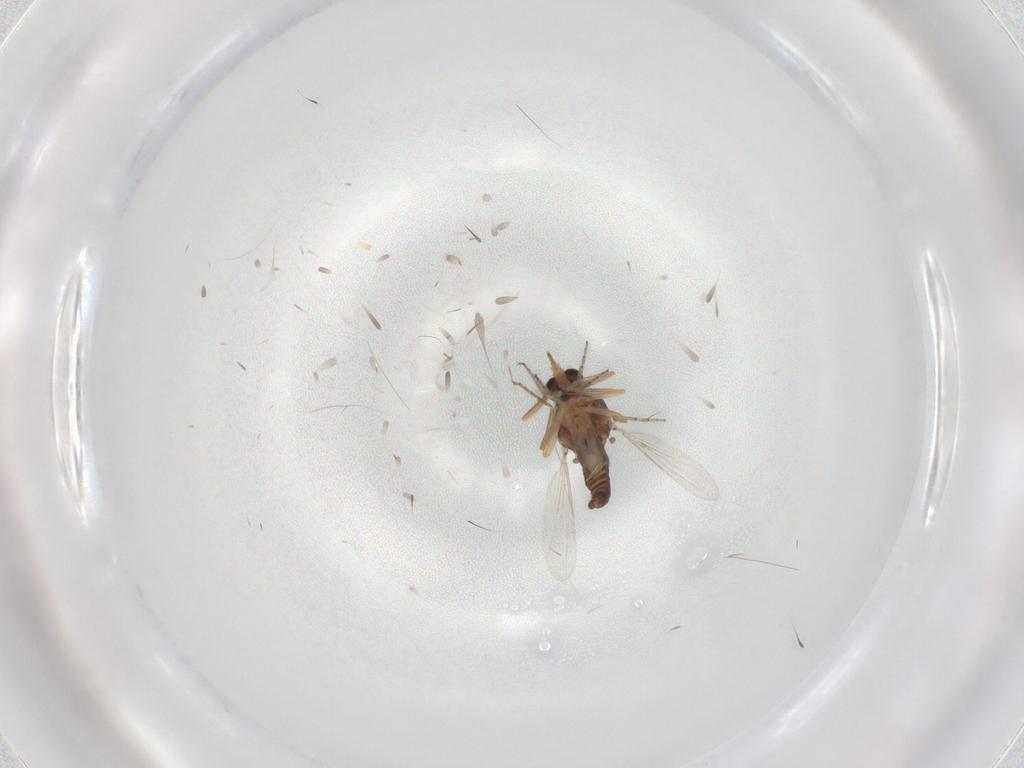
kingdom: Animalia
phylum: Arthropoda
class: Insecta
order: Diptera
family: Ceratopogonidae
